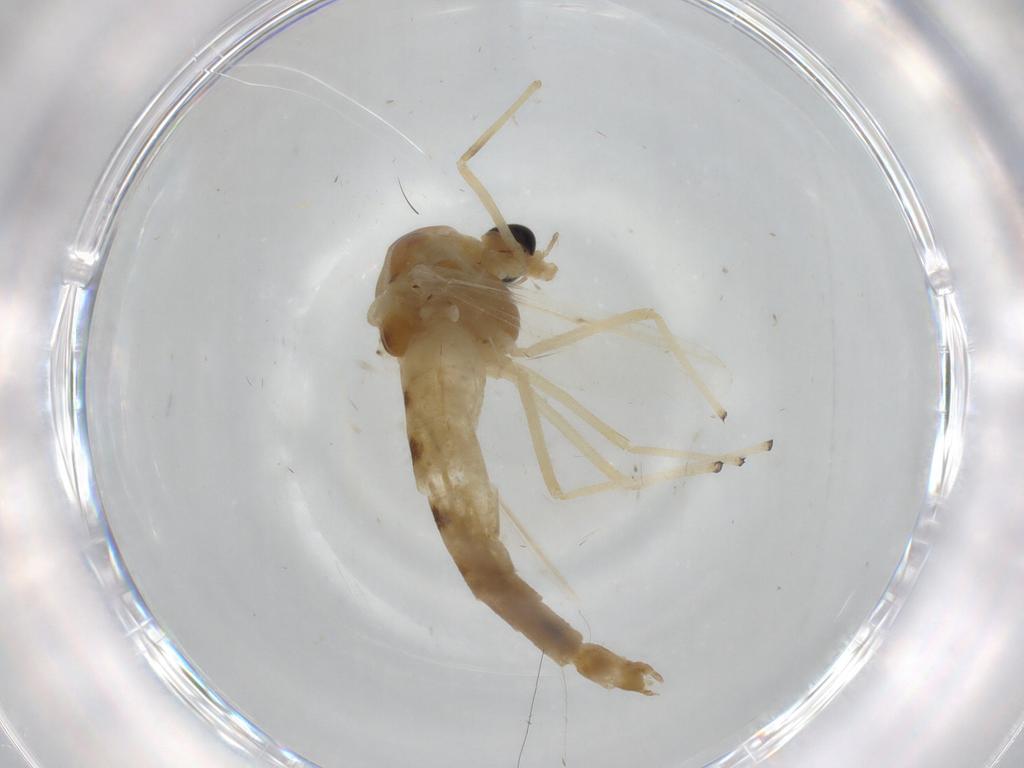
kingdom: Animalia
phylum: Arthropoda
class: Insecta
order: Diptera
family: Chironomidae
